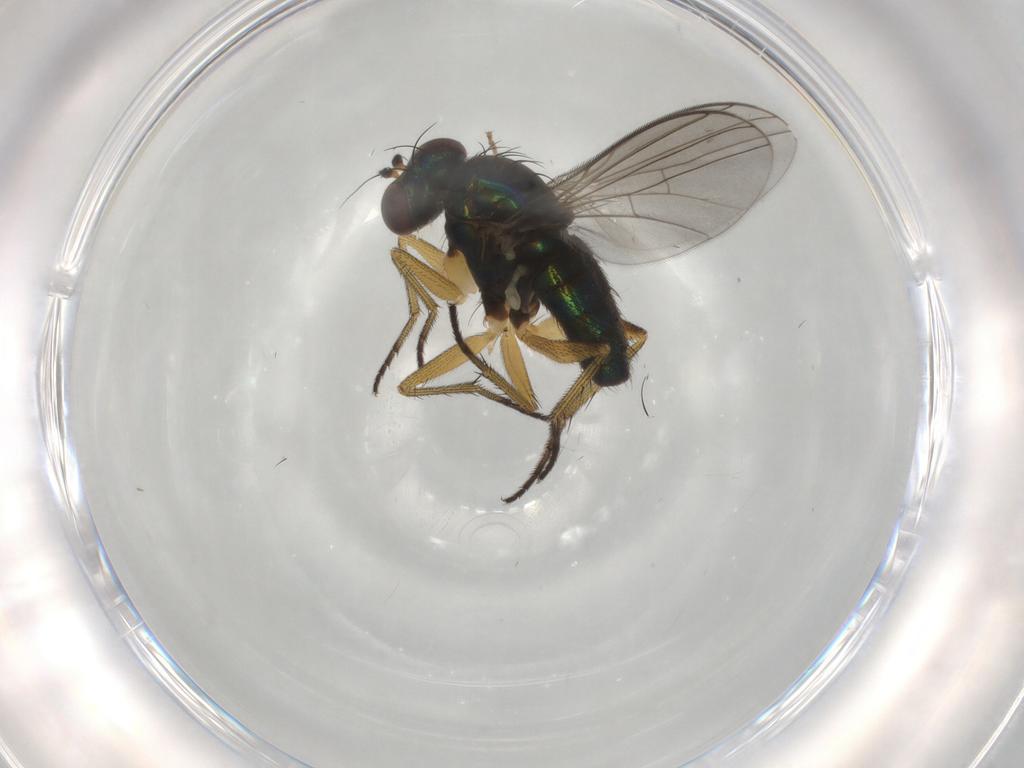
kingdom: Animalia
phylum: Arthropoda
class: Insecta
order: Diptera
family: Dolichopodidae
